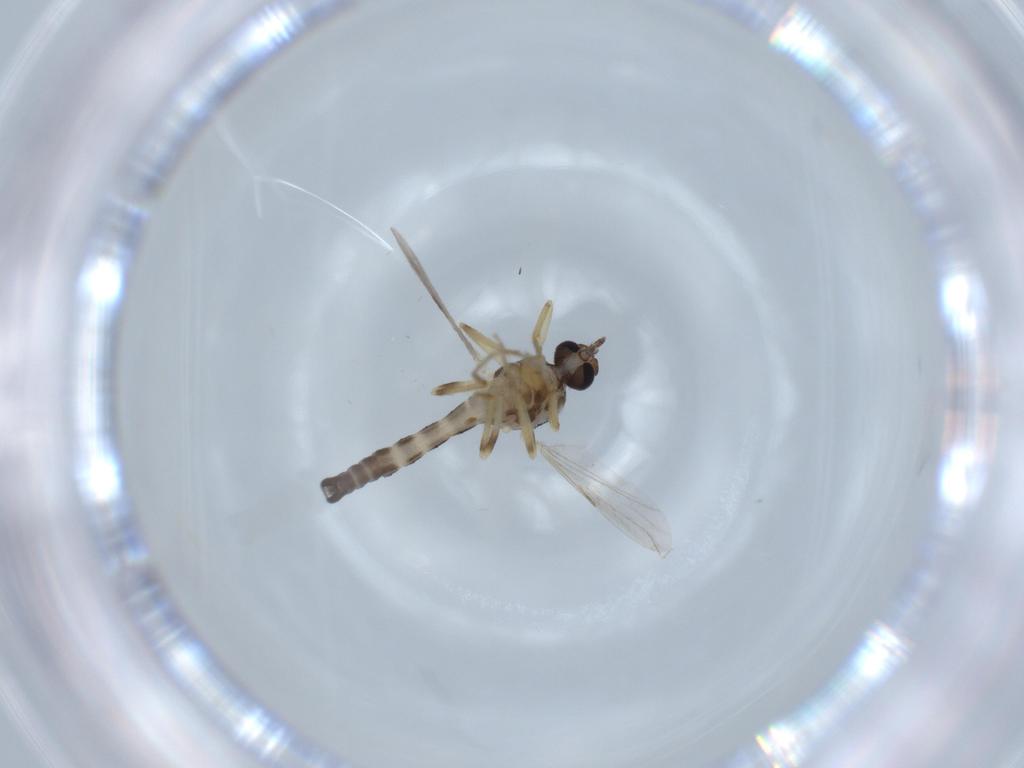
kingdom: Animalia
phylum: Arthropoda
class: Insecta
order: Diptera
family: Ceratopogonidae
